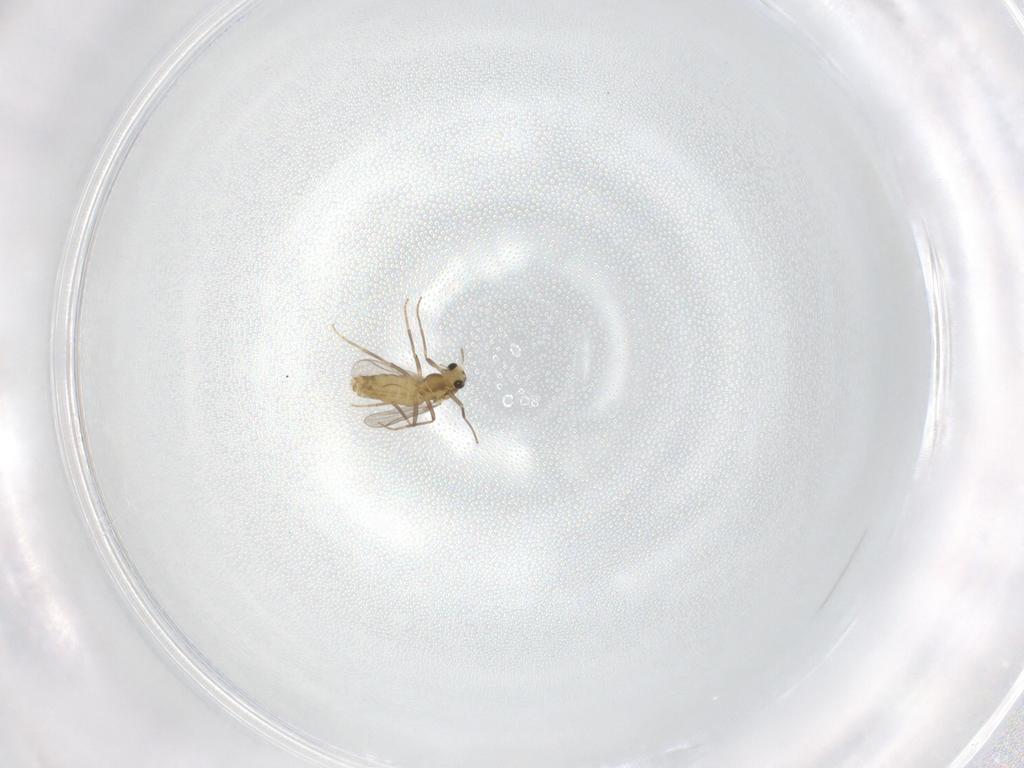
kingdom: Animalia
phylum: Arthropoda
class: Insecta
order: Diptera
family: Chironomidae
